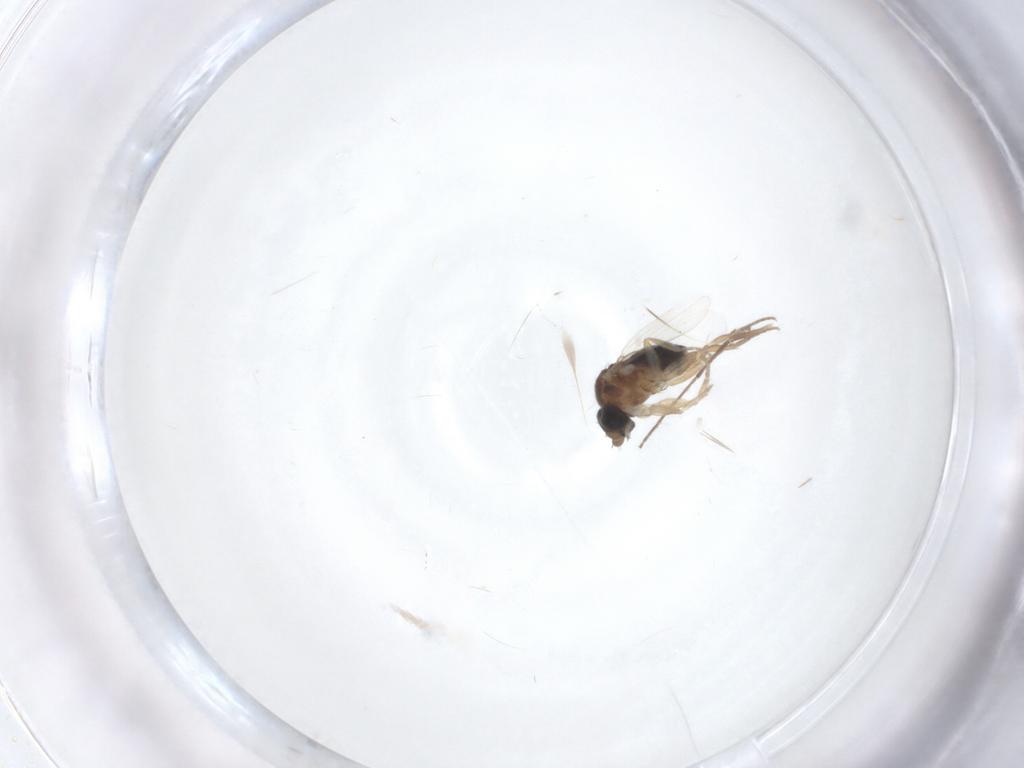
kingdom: Animalia
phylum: Arthropoda
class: Insecta
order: Diptera
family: Chironomidae
